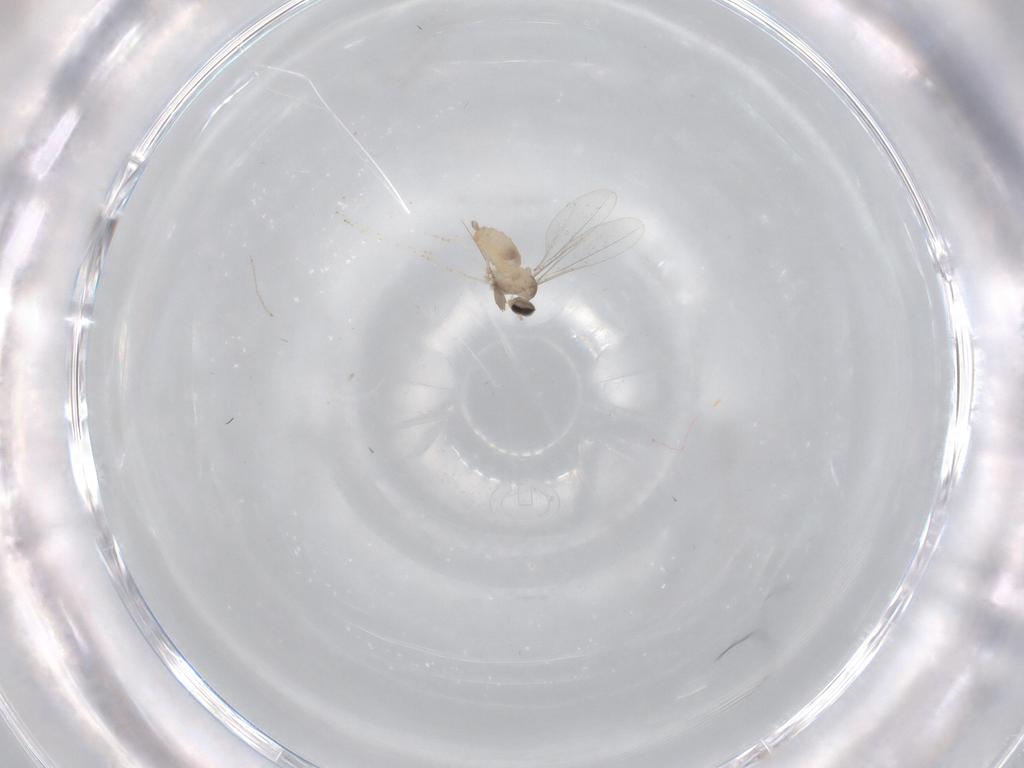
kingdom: Animalia
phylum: Arthropoda
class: Insecta
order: Diptera
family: Cecidomyiidae
